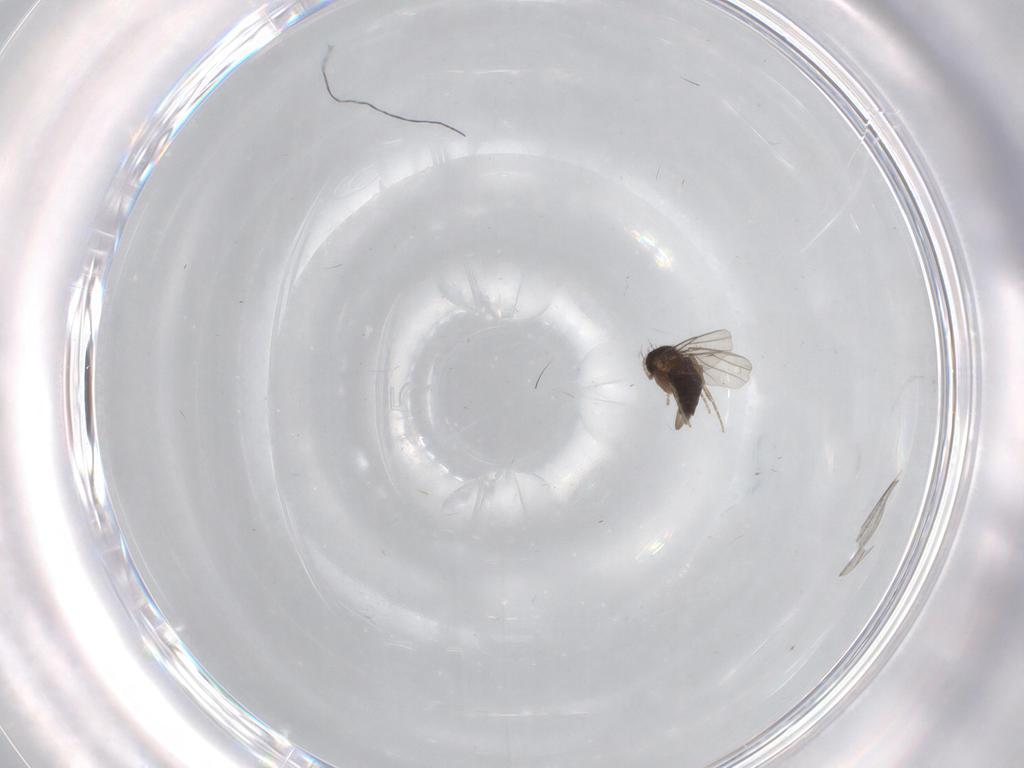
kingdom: Animalia
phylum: Arthropoda
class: Insecta
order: Diptera
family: Phoridae
